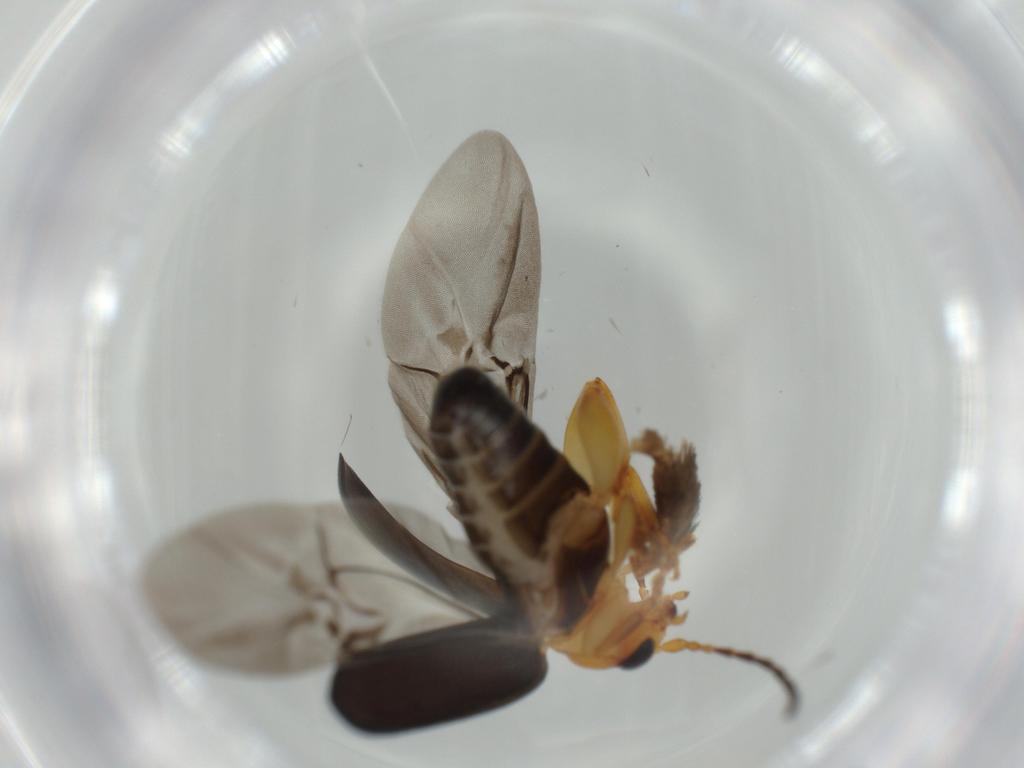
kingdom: Animalia
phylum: Arthropoda
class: Insecta
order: Coleoptera
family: Chrysomelidae
